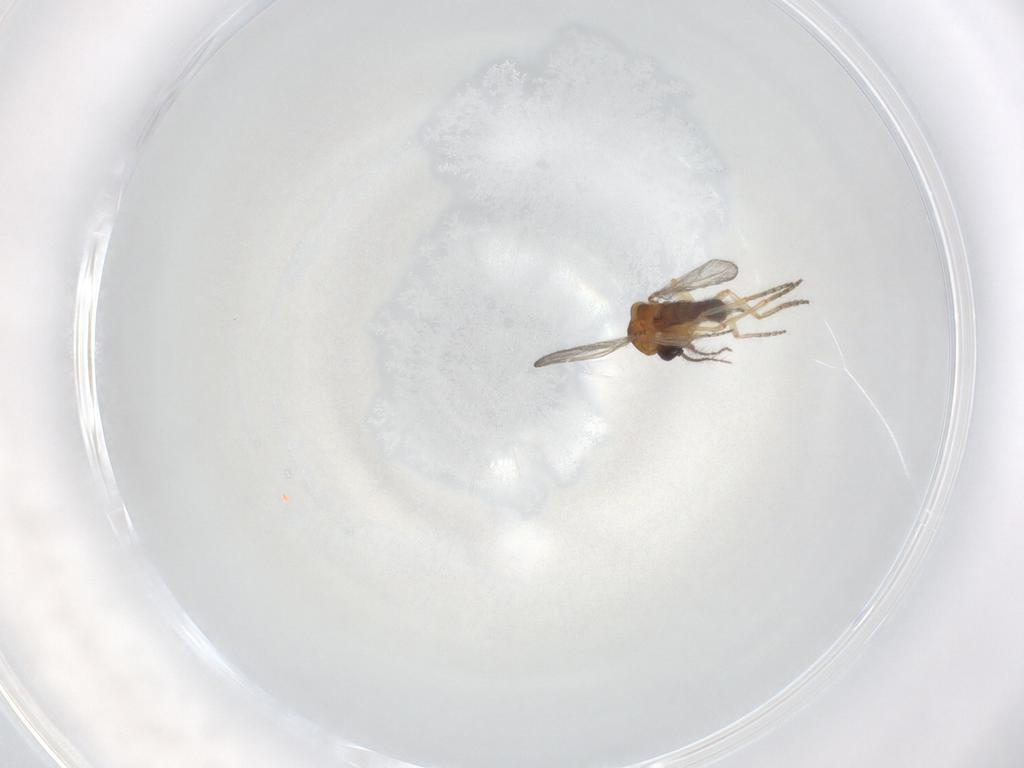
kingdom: Animalia
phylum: Arthropoda
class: Insecta
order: Diptera
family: Ceratopogonidae
